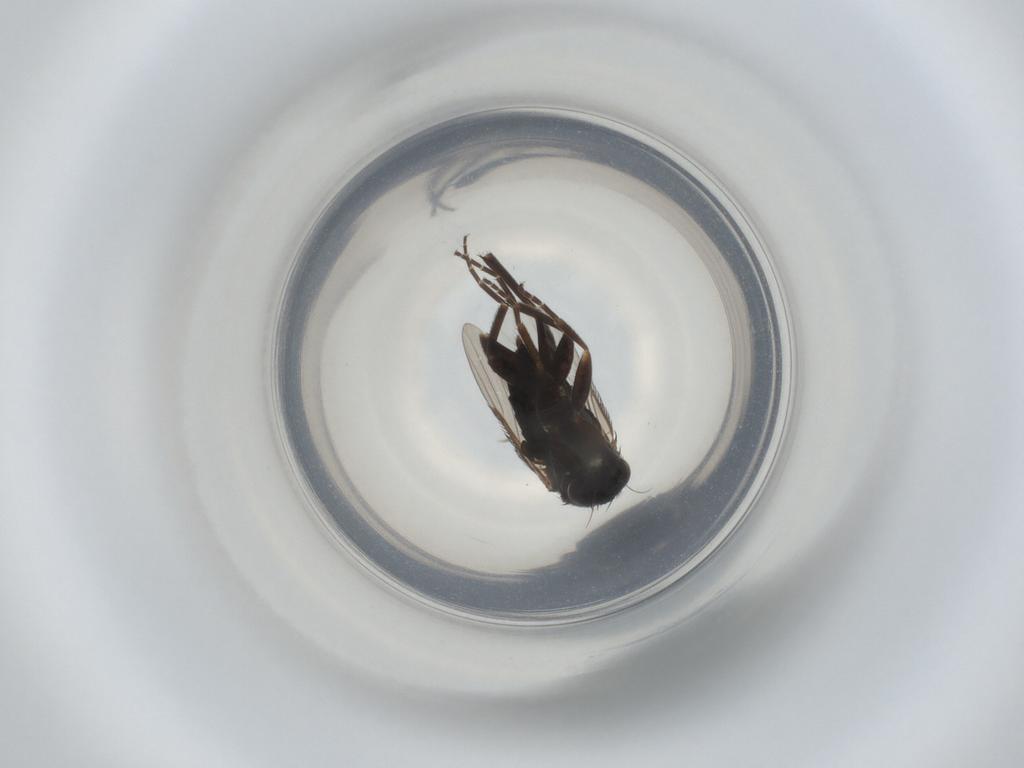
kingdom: Animalia
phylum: Arthropoda
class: Insecta
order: Diptera
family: Phoridae
